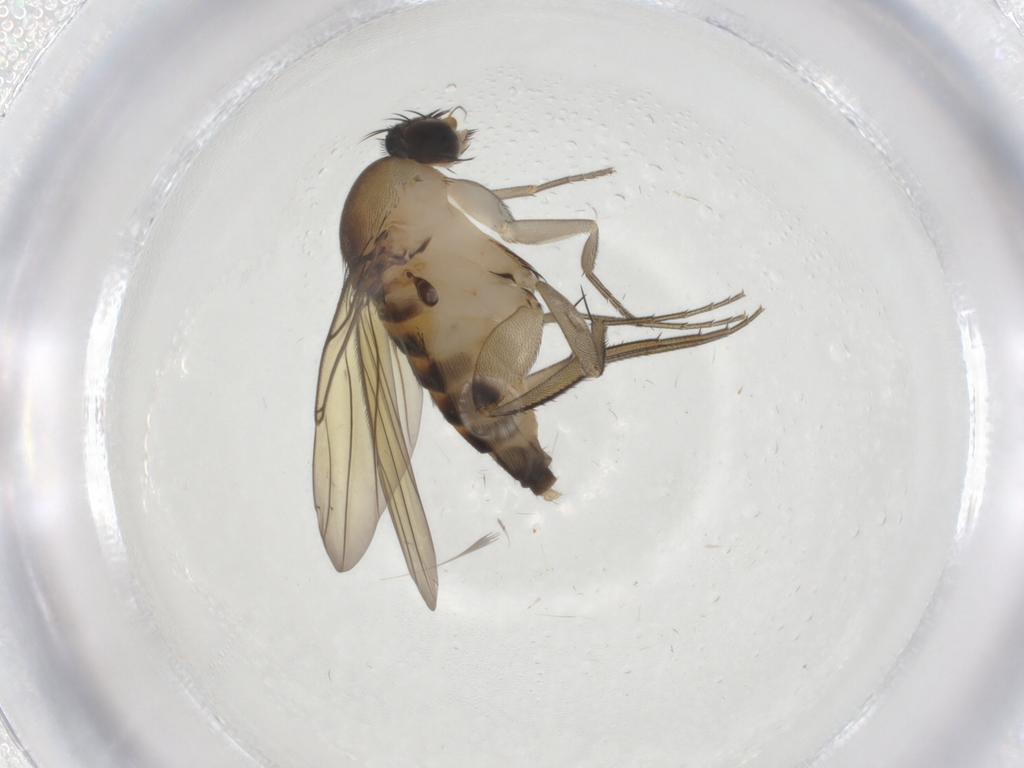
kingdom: Animalia
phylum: Arthropoda
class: Insecta
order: Diptera
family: Phoridae
